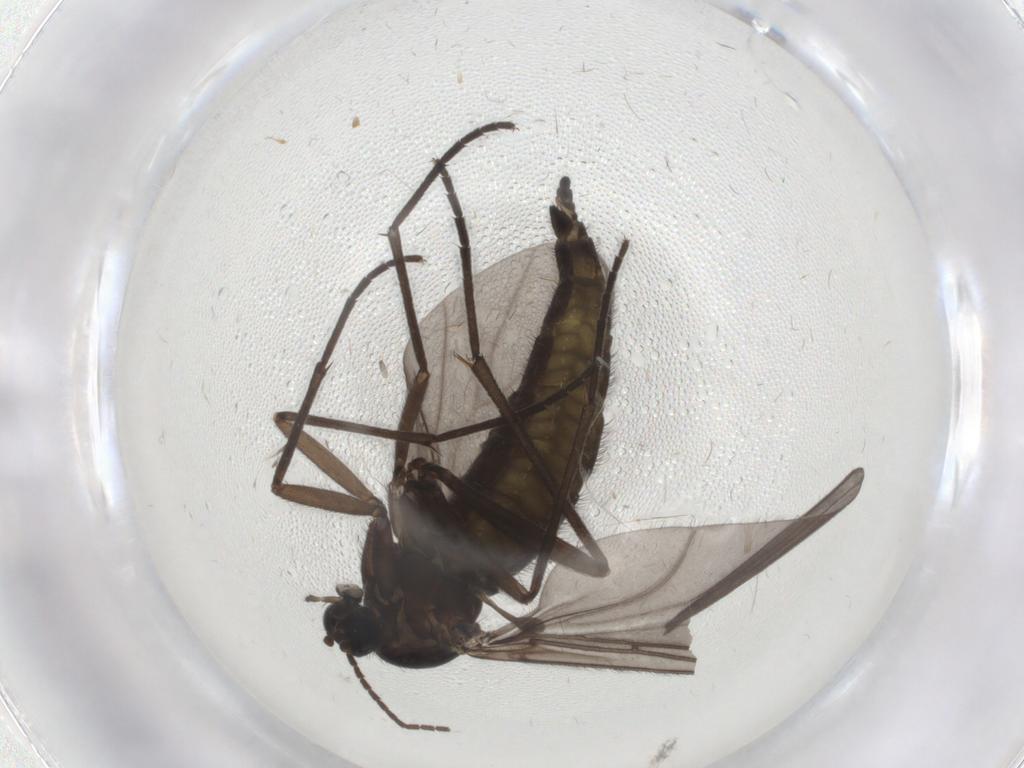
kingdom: Animalia
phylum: Arthropoda
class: Insecta
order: Diptera
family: Sciaridae
